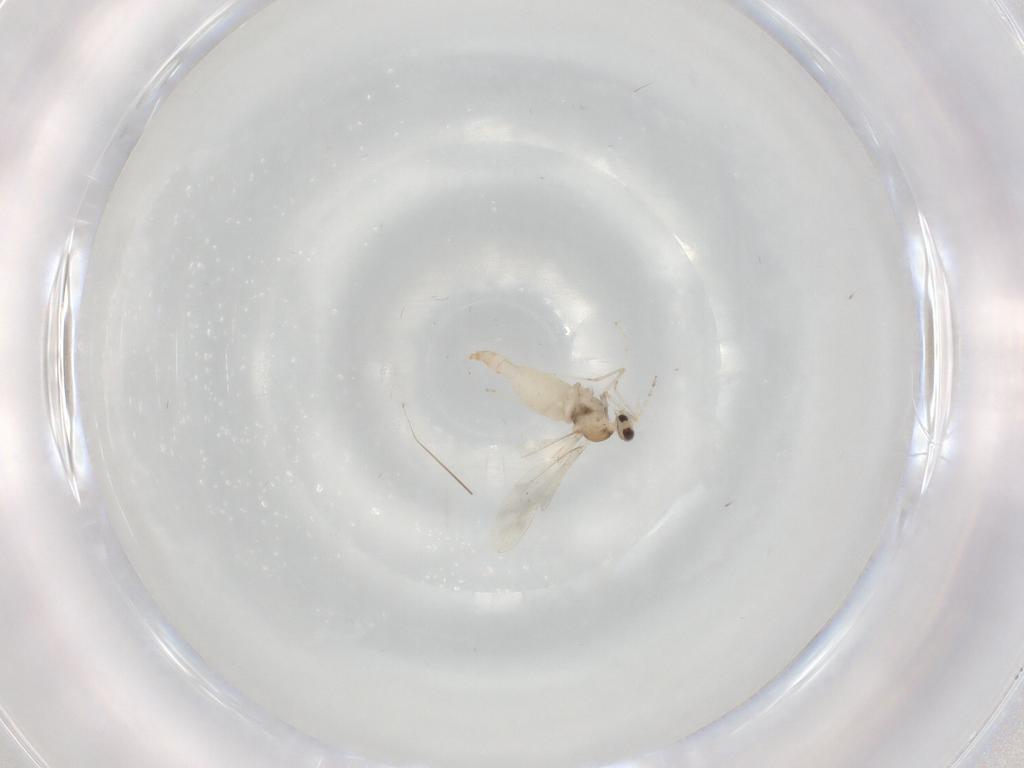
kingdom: Animalia
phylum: Arthropoda
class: Insecta
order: Diptera
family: Cecidomyiidae
